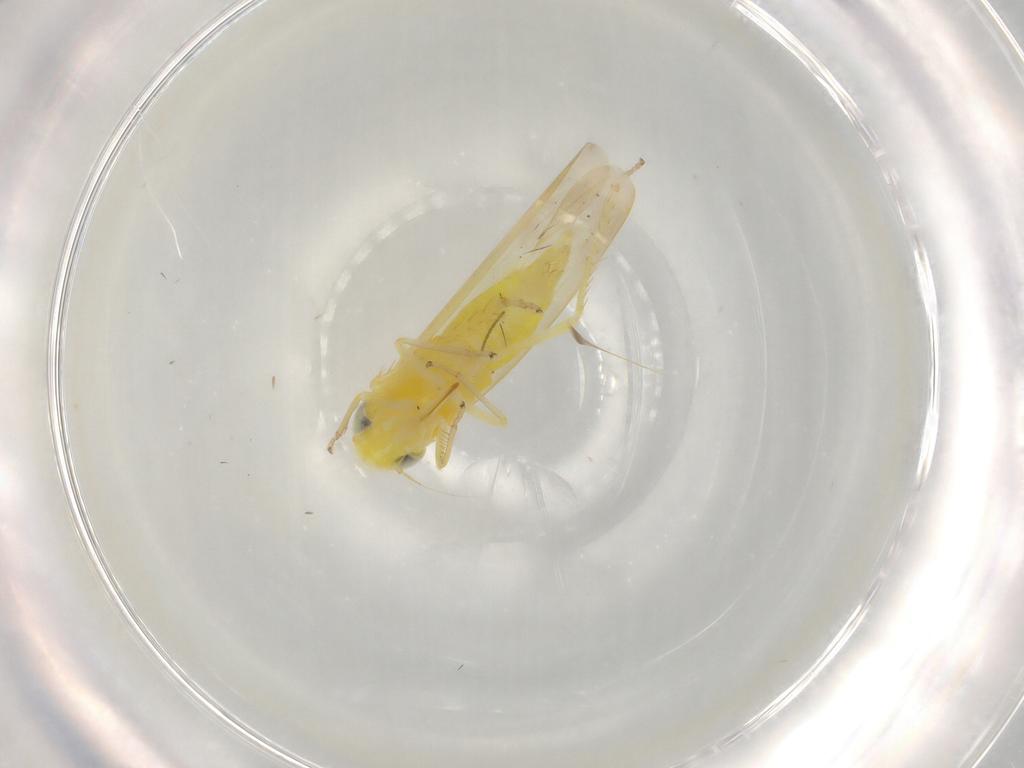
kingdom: Animalia
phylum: Arthropoda
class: Insecta
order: Hemiptera
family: Cicadellidae
